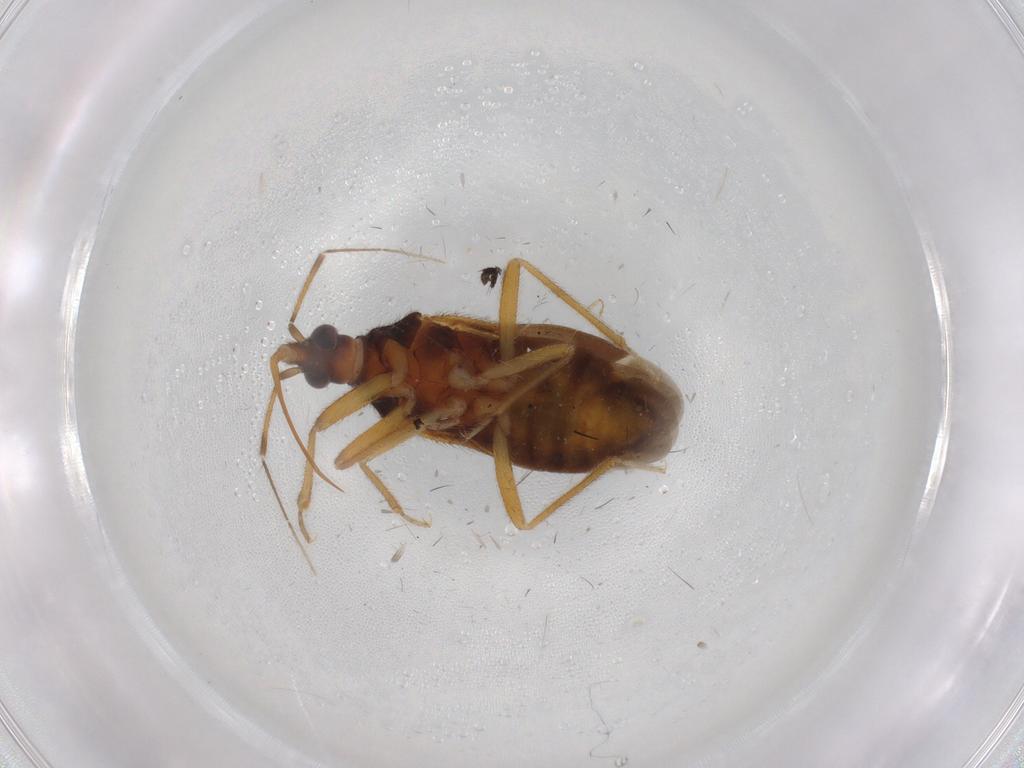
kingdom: Animalia
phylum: Arthropoda
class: Insecta
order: Hemiptera
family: Anthocoridae
